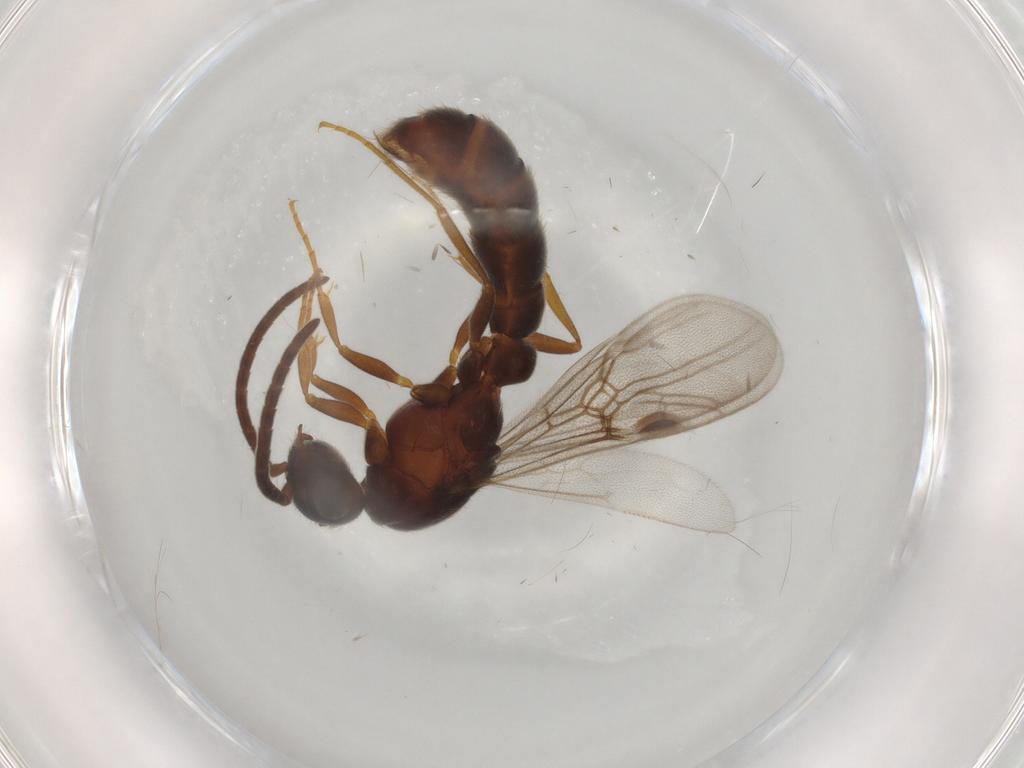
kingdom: Animalia
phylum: Arthropoda
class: Insecta
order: Hymenoptera
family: Formicidae
